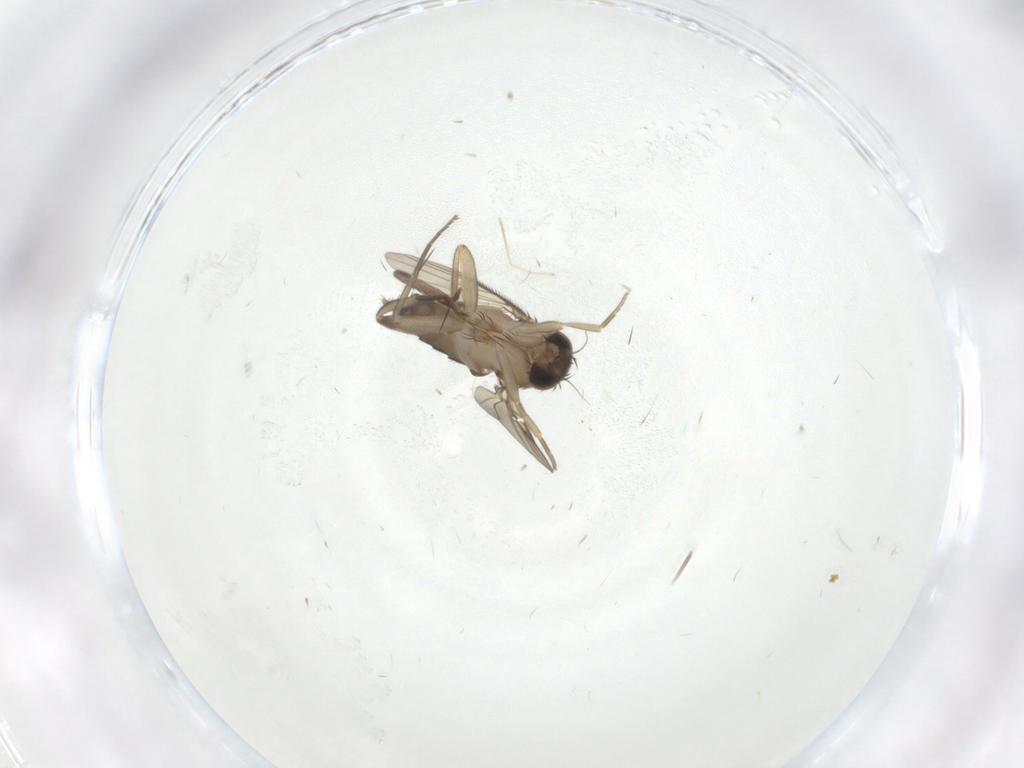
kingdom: Animalia
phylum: Arthropoda
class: Insecta
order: Diptera
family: Phoridae
